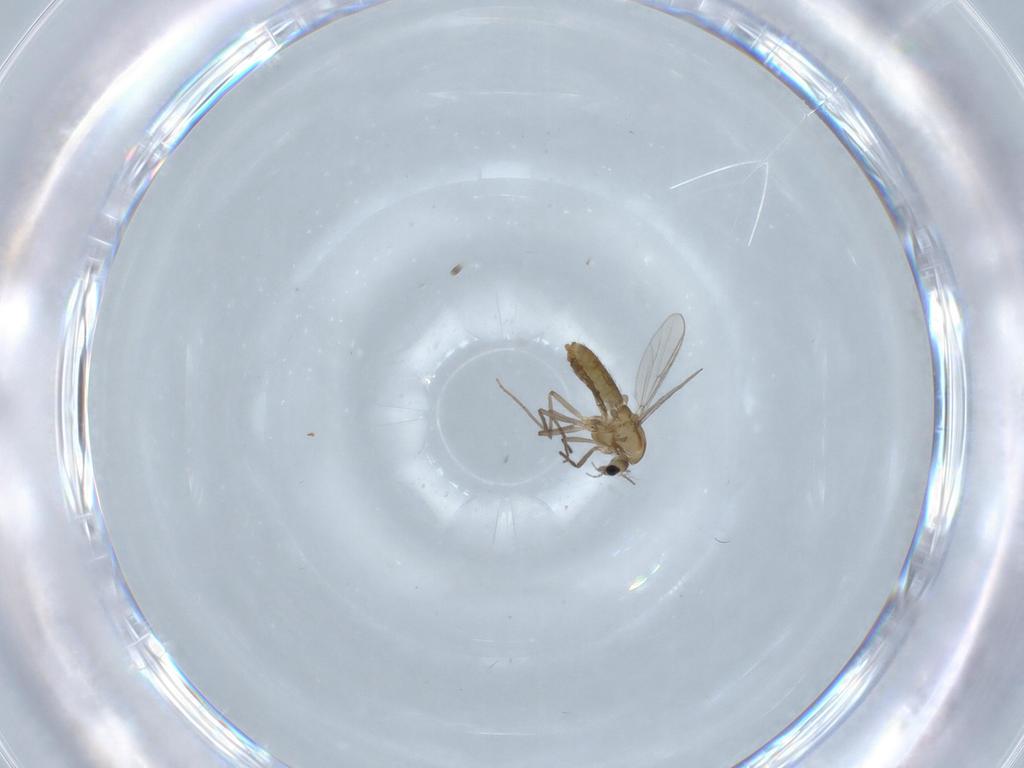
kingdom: Animalia
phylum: Arthropoda
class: Insecta
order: Diptera
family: Chironomidae
